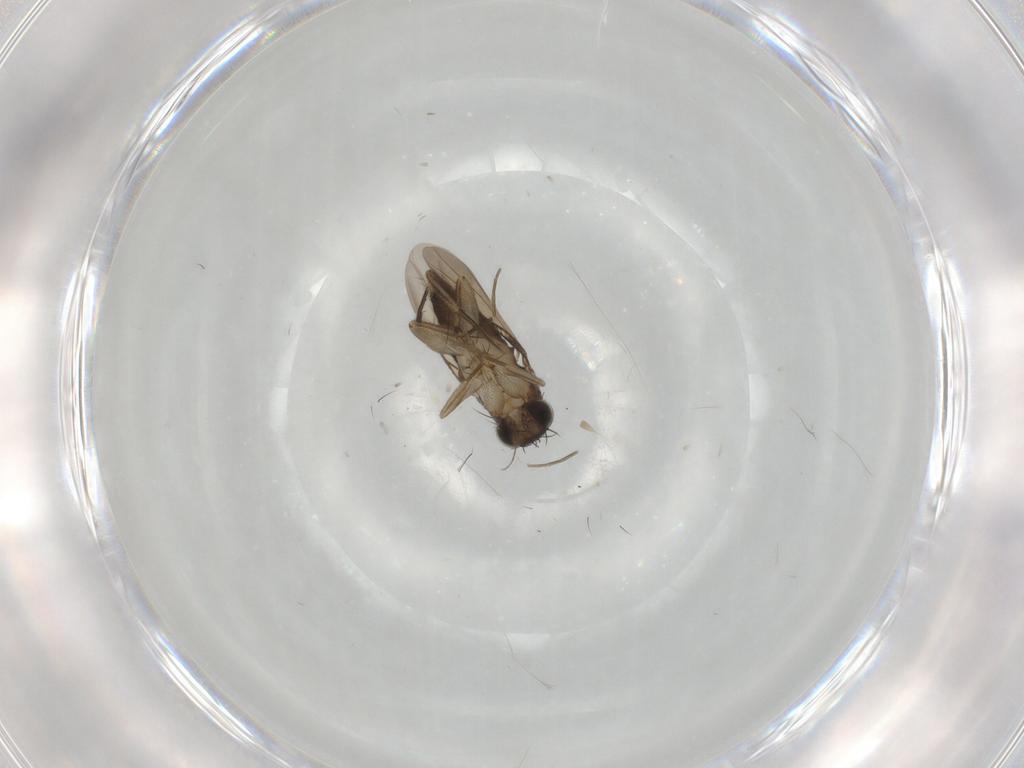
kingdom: Animalia
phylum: Arthropoda
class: Insecta
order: Diptera
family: Phoridae
